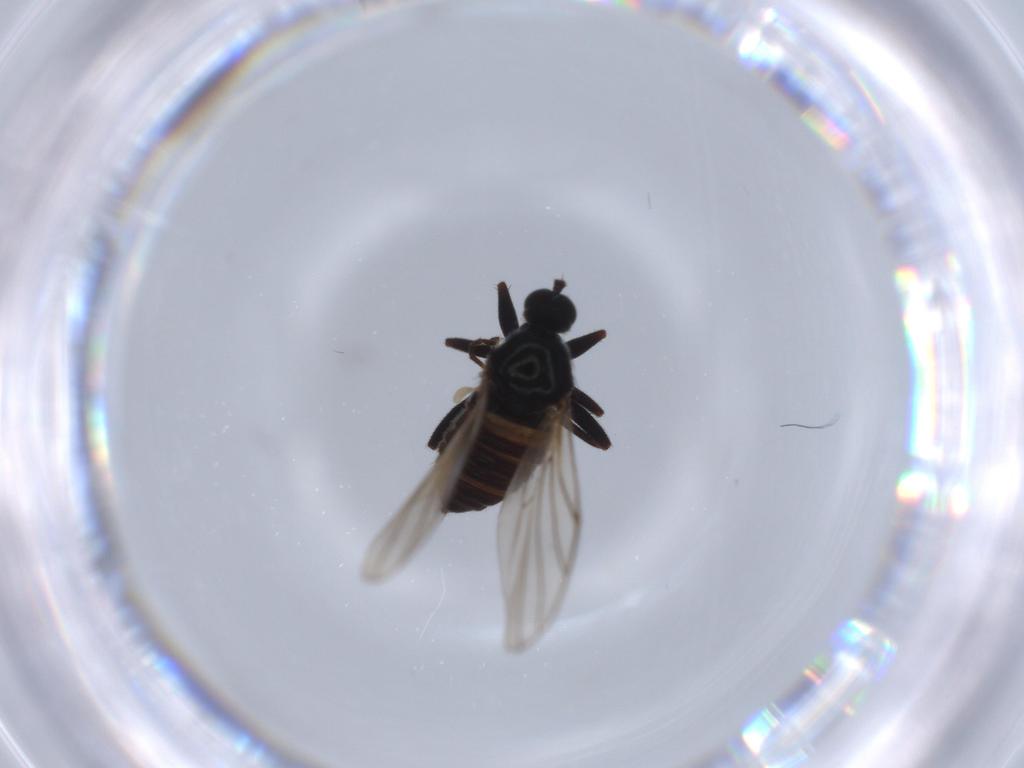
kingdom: Animalia
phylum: Arthropoda
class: Insecta
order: Diptera
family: Hybotidae
